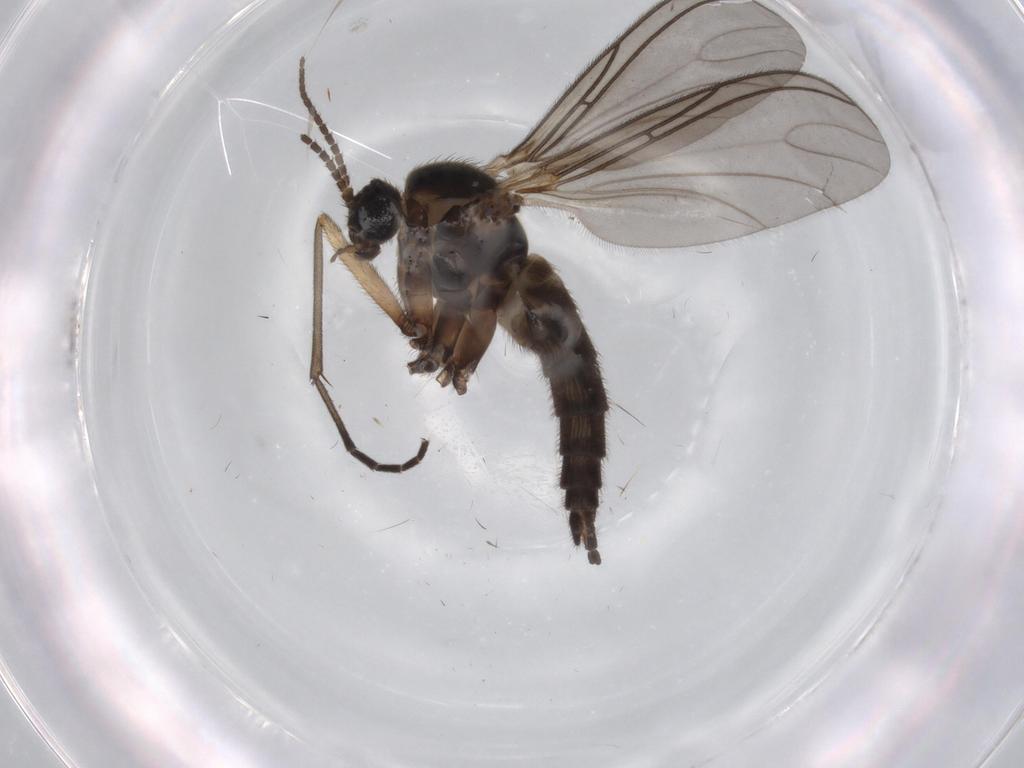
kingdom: Animalia
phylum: Arthropoda
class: Insecta
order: Diptera
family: Sciaridae
